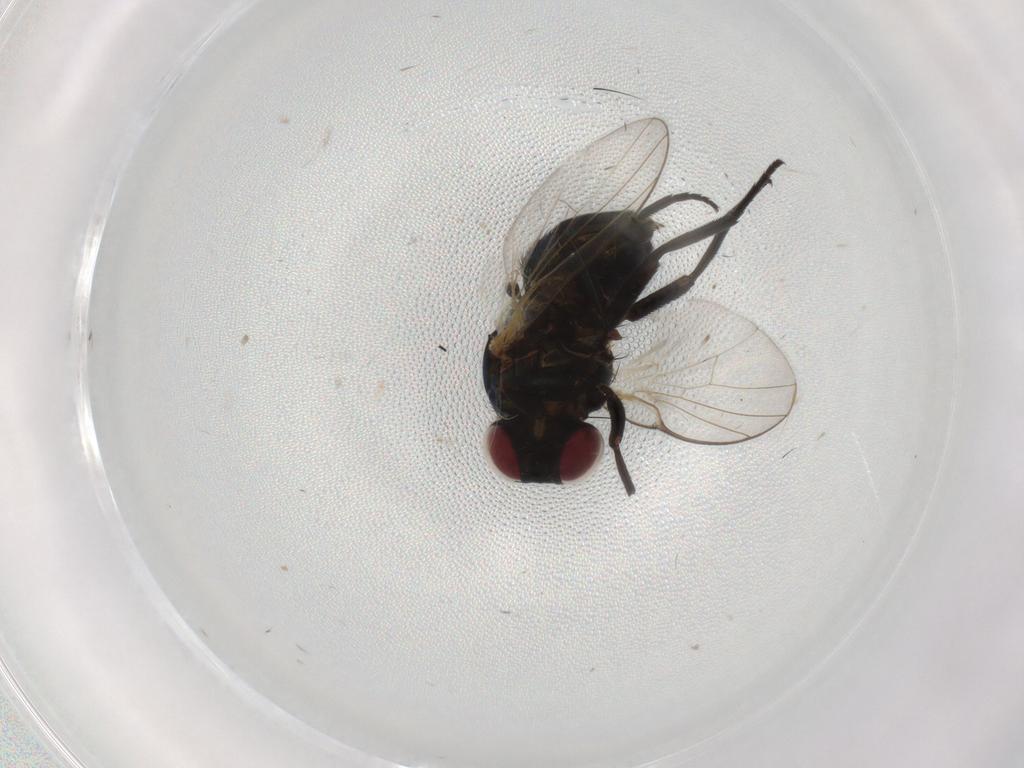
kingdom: Animalia
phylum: Arthropoda
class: Insecta
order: Diptera
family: Agromyzidae
